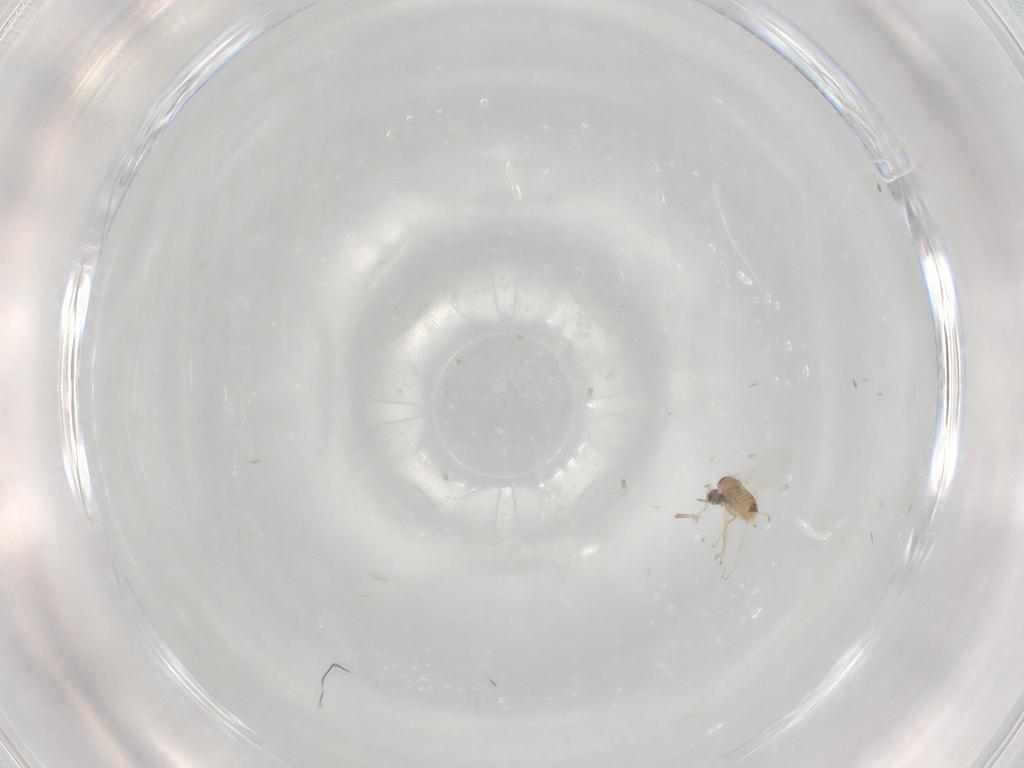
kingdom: Animalia
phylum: Arthropoda
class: Insecta
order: Diptera
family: Cecidomyiidae
